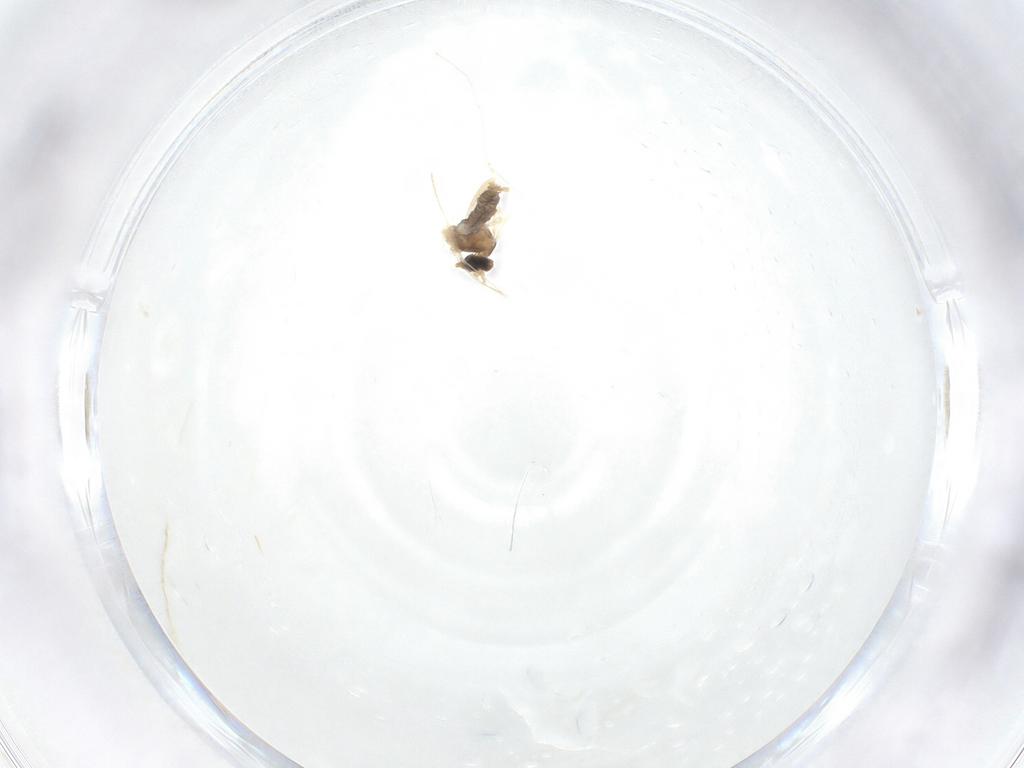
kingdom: Animalia
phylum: Arthropoda
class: Insecta
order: Diptera
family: Cecidomyiidae
